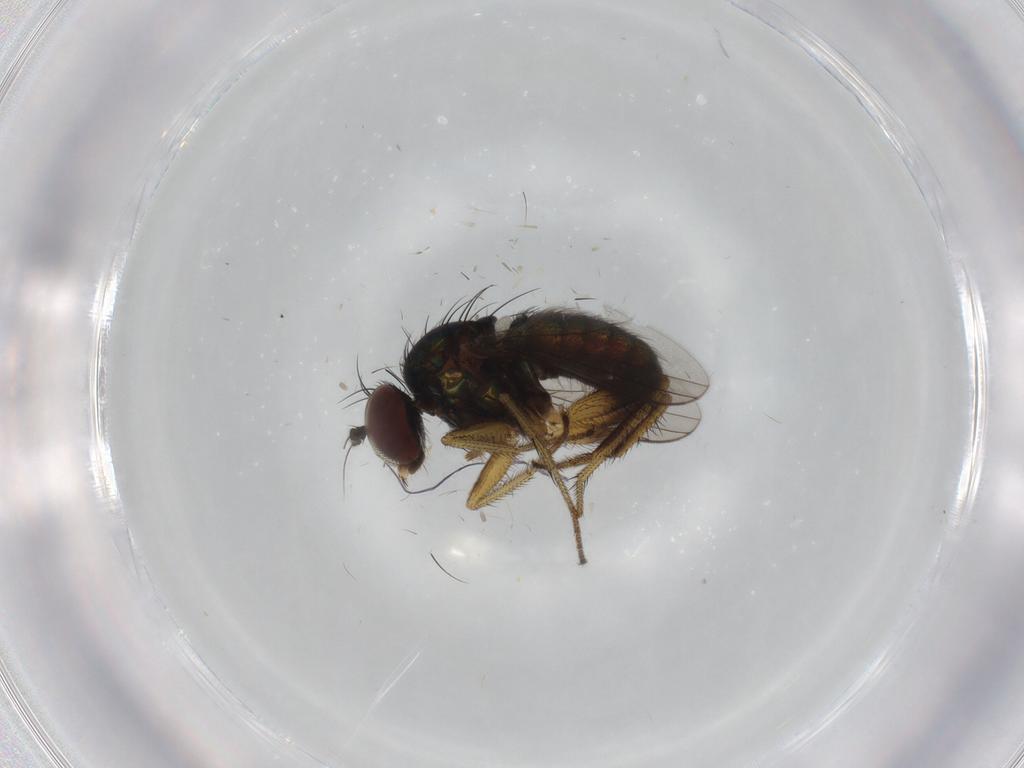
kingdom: Animalia
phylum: Arthropoda
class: Insecta
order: Diptera
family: Dolichopodidae
